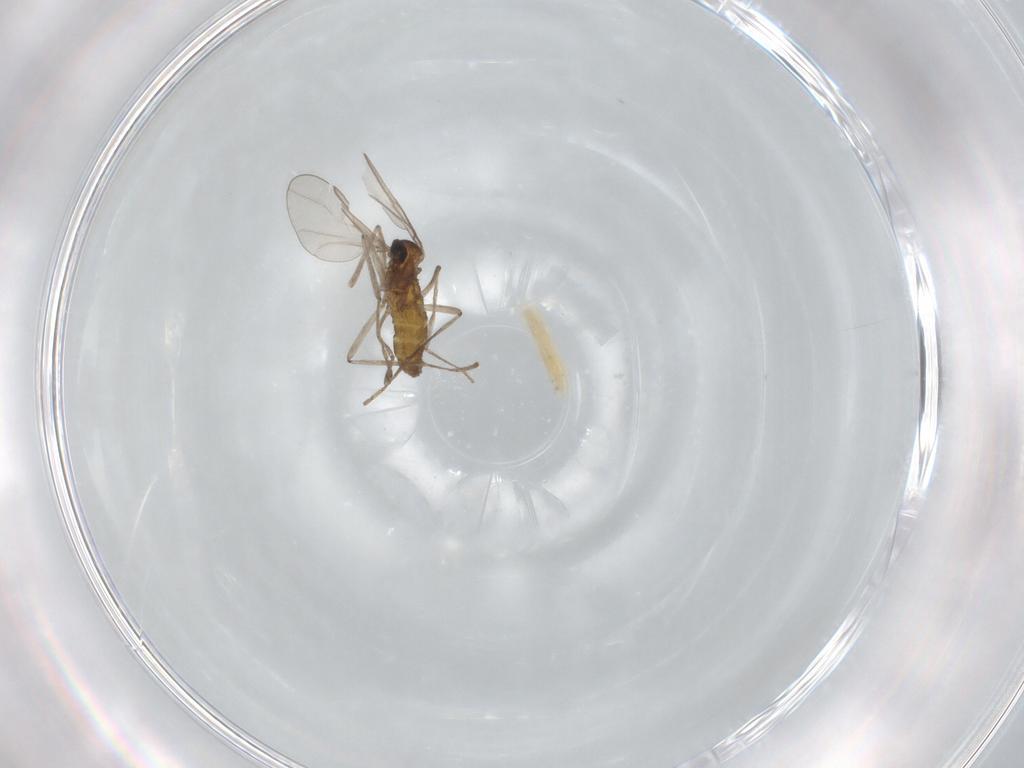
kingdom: Animalia
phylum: Arthropoda
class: Insecta
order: Diptera
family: Cecidomyiidae
